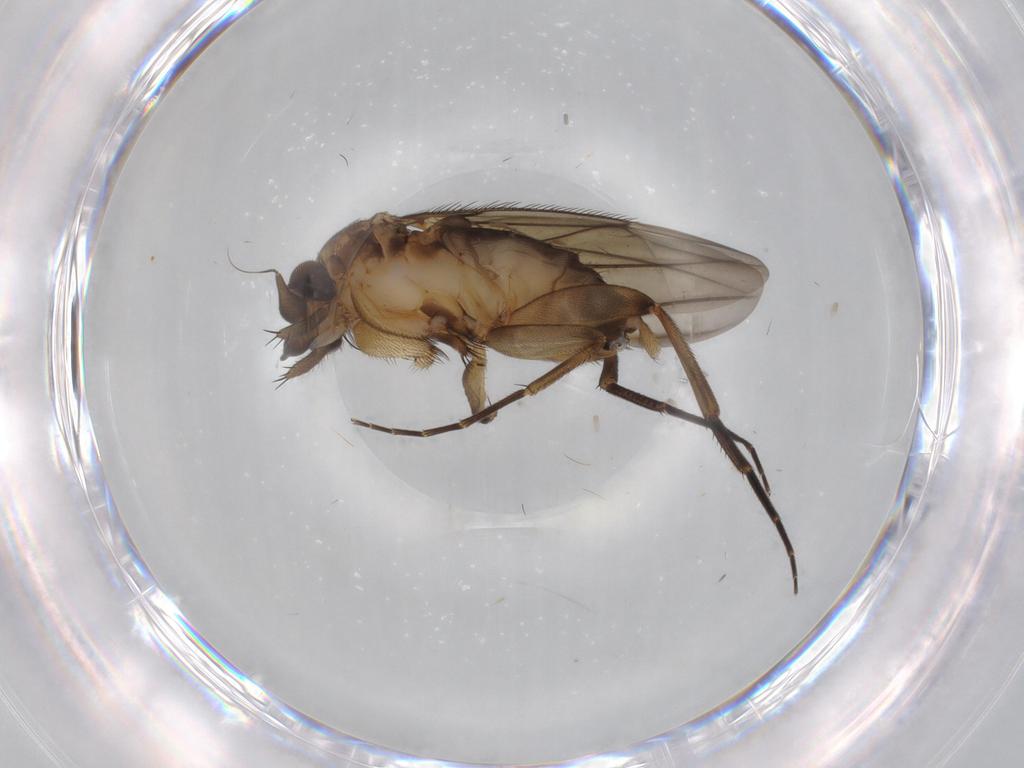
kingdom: Animalia
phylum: Arthropoda
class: Insecta
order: Diptera
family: Phoridae
